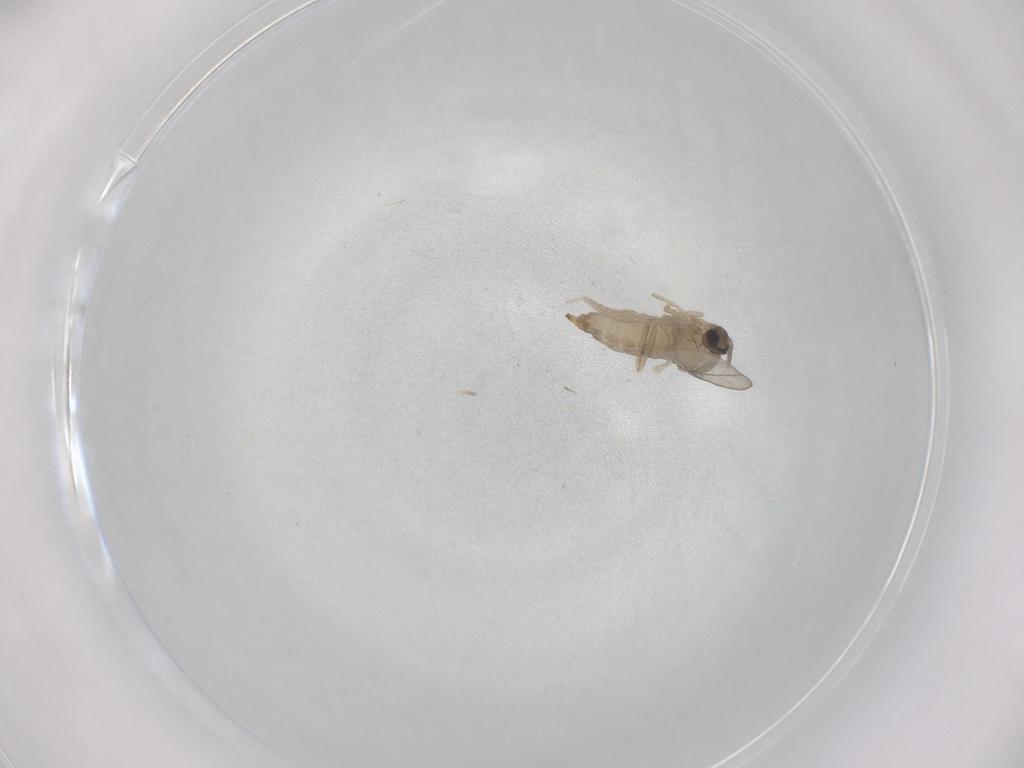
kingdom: Animalia
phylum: Arthropoda
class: Insecta
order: Diptera
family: Cecidomyiidae
